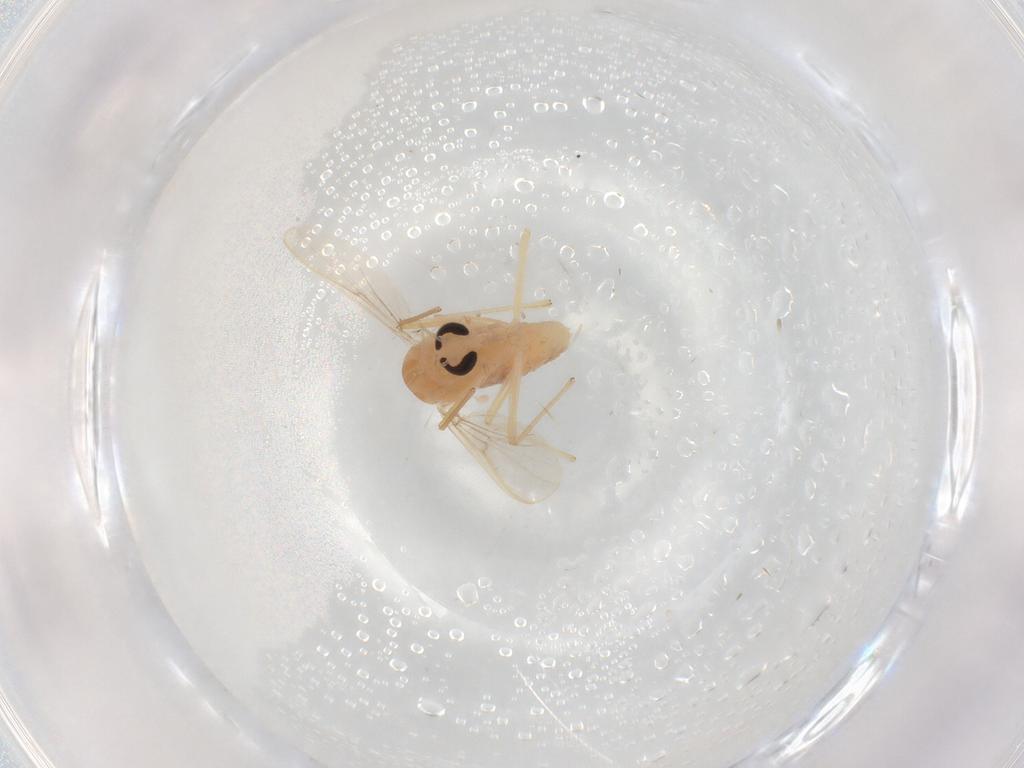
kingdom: Animalia
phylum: Arthropoda
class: Insecta
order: Diptera
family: Chironomidae
